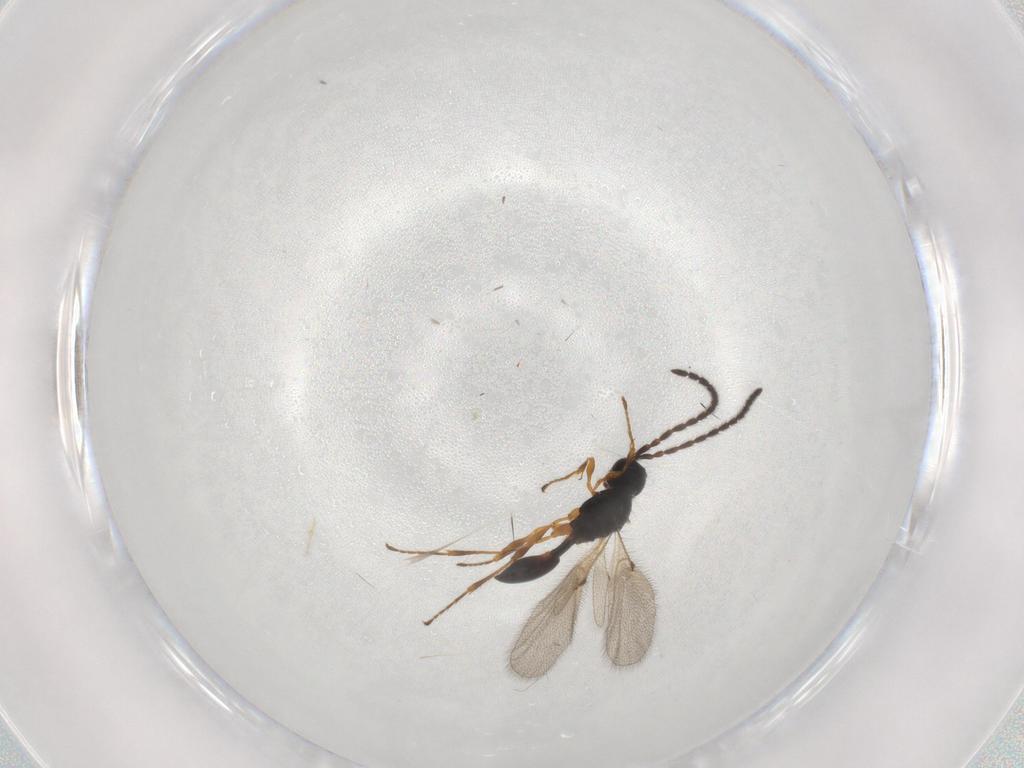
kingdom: Animalia
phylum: Arthropoda
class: Insecta
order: Hymenoptera
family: Diapriidae
